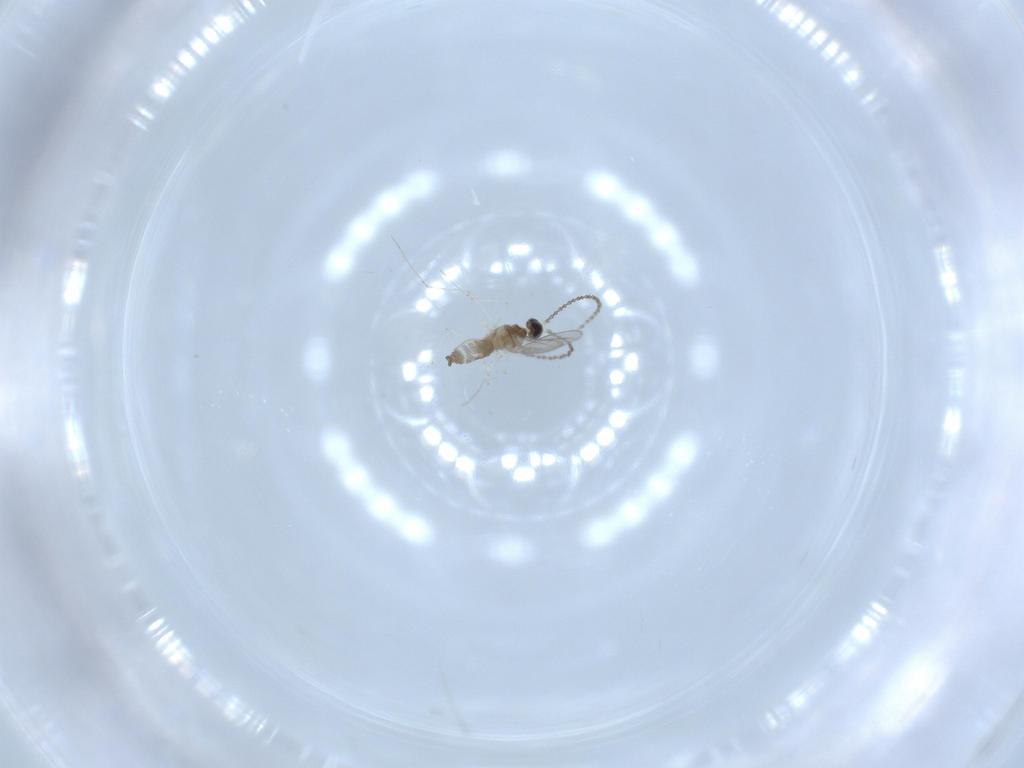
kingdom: Animalia
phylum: Arthropoda
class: Insecta
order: Diptera
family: Cecidomyiidae
